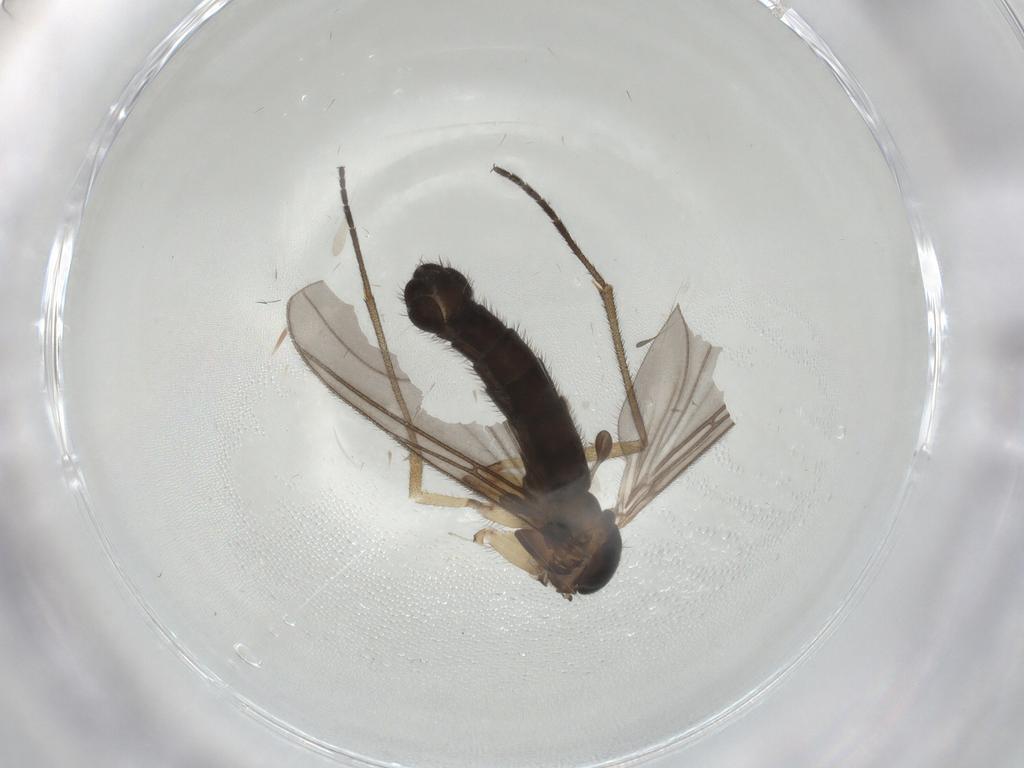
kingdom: Animalia
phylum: Arthropoda
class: Insecta
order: Diptera
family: Sciaridae
